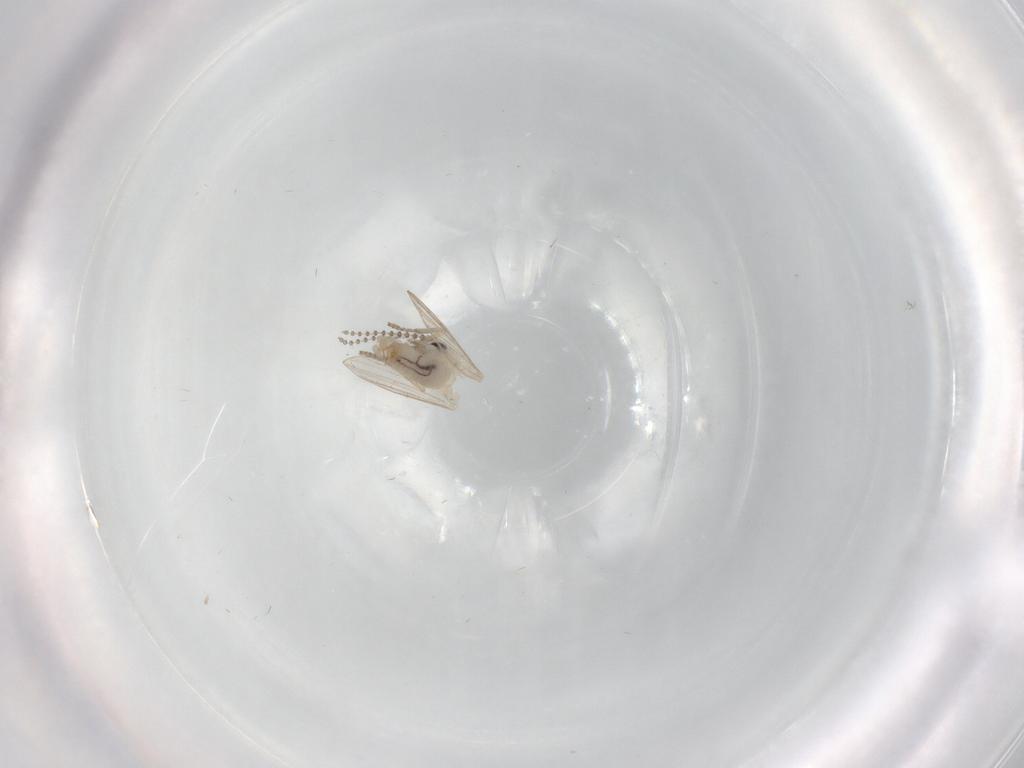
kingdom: Animalia
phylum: Arthropoda
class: Insecta
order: Diptera
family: Psychodidae
